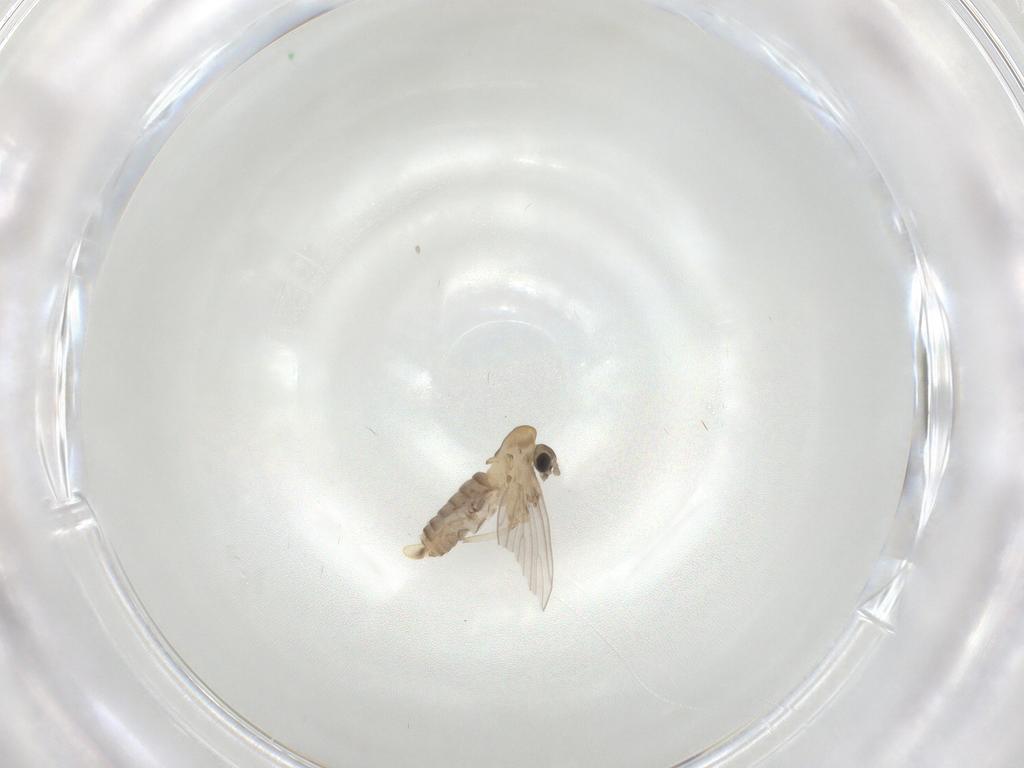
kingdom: Animalia
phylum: Arthropoda
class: Insecta
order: Diptera
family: Psychodidae
